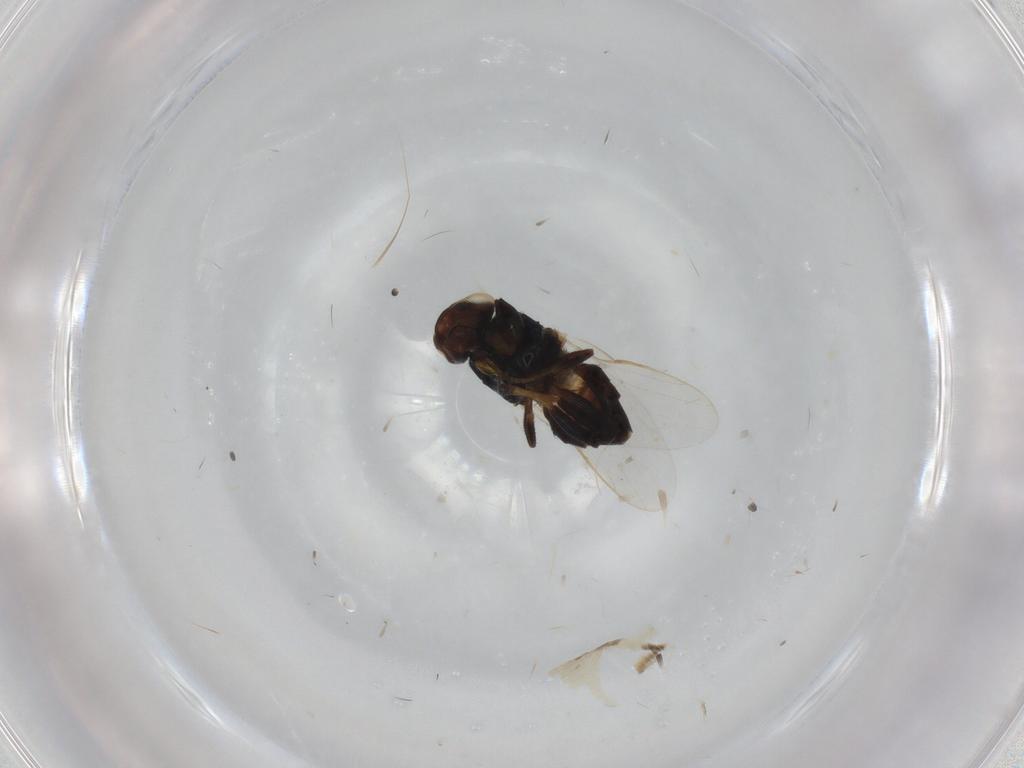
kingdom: Animalia
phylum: Arthropoda
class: Insecta
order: Diptera
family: Chloropidae
